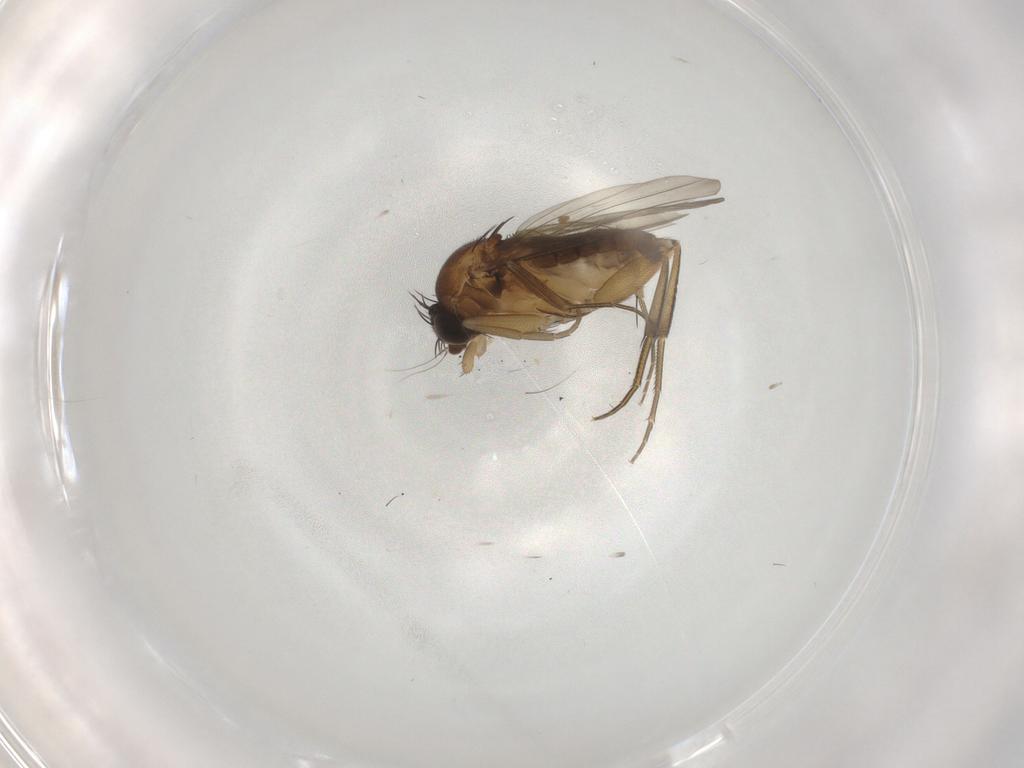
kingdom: Animalia
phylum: Arthropoda
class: Insecta
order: Diptera
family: Phoridae
